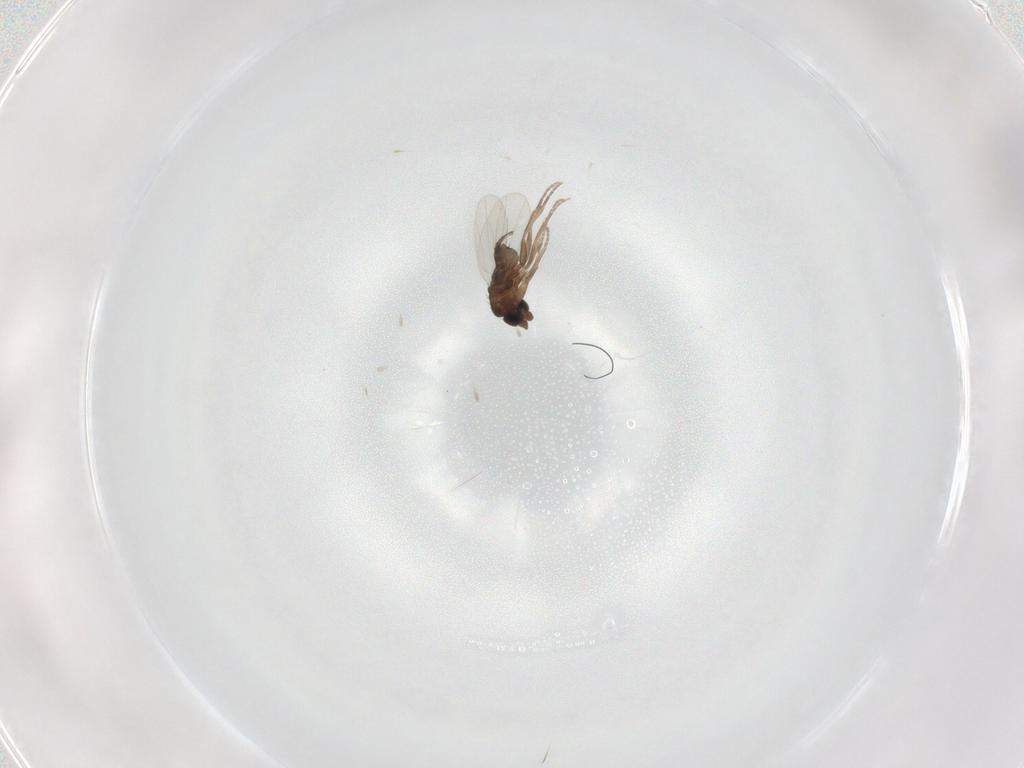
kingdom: Animalia
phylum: Arthropoda
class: Insecta
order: Diptera
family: Phoridae
